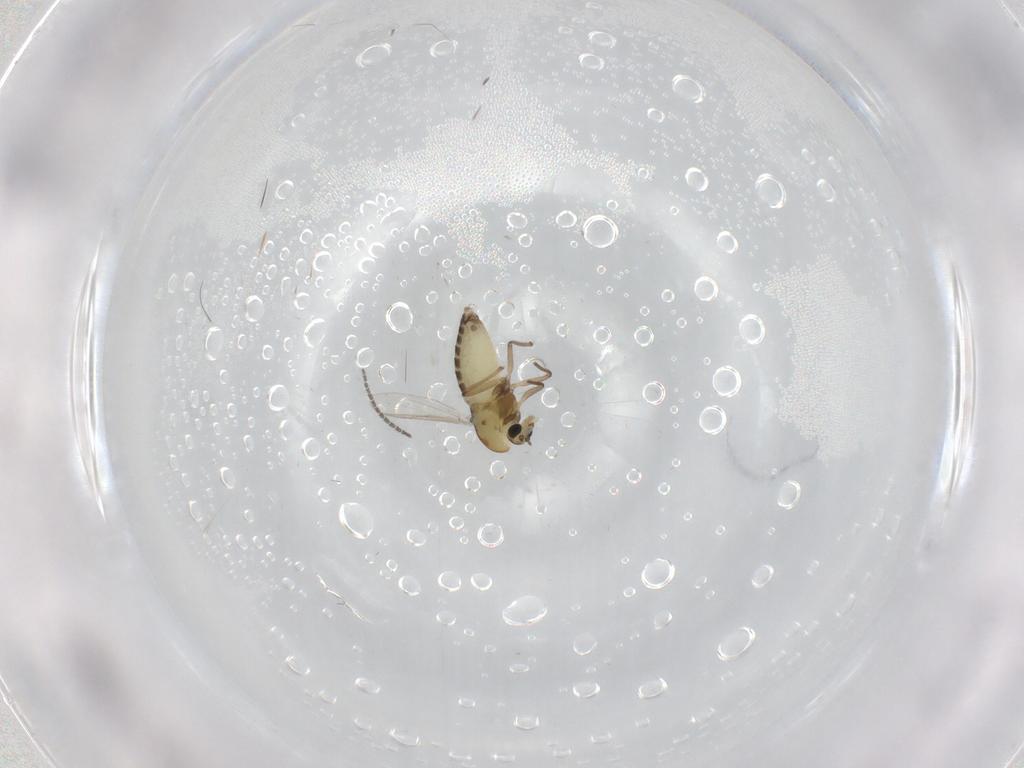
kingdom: Animalia
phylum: Arthropoda
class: Insecta
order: Diptera
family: Chironomidae
